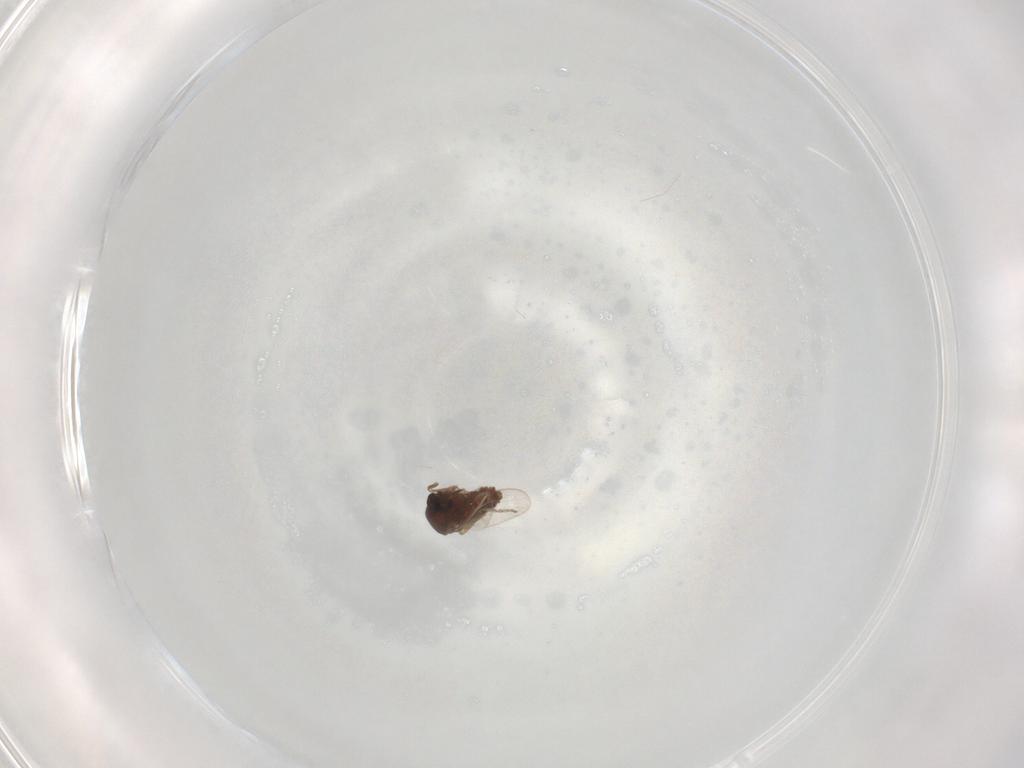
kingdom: Animalia
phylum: Arthropoda
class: Insecta
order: Diptera
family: Ceratopogonidae
